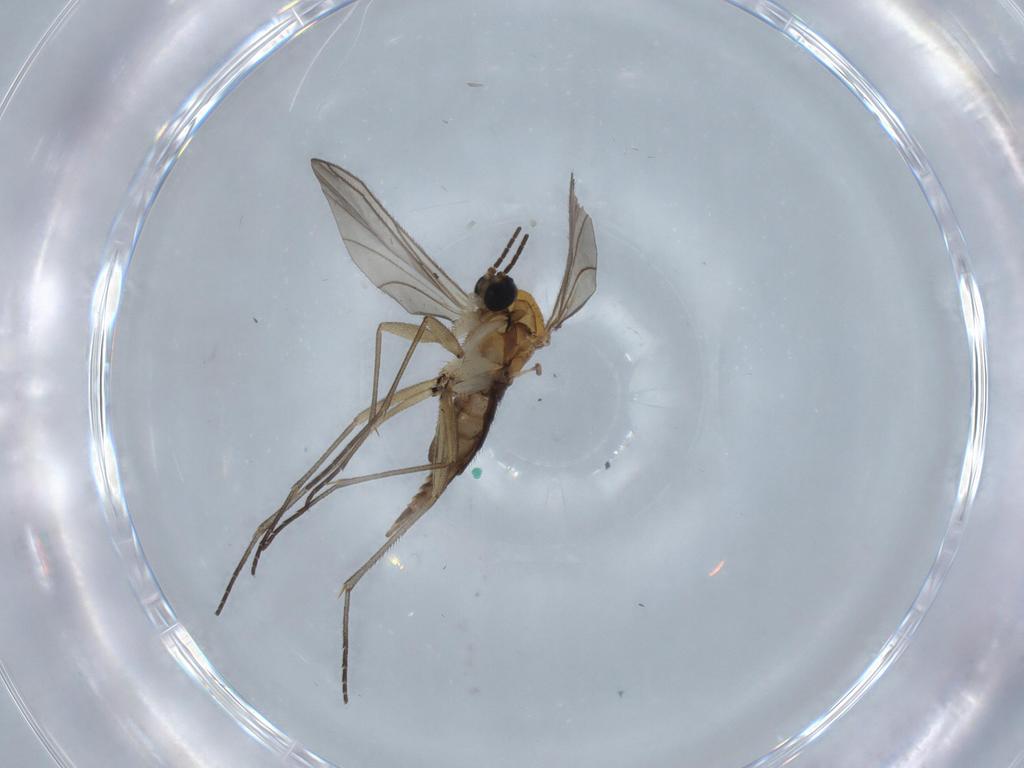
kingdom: Animalia
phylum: Arthropoda
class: Insecta
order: Diptera
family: Sciaridae
